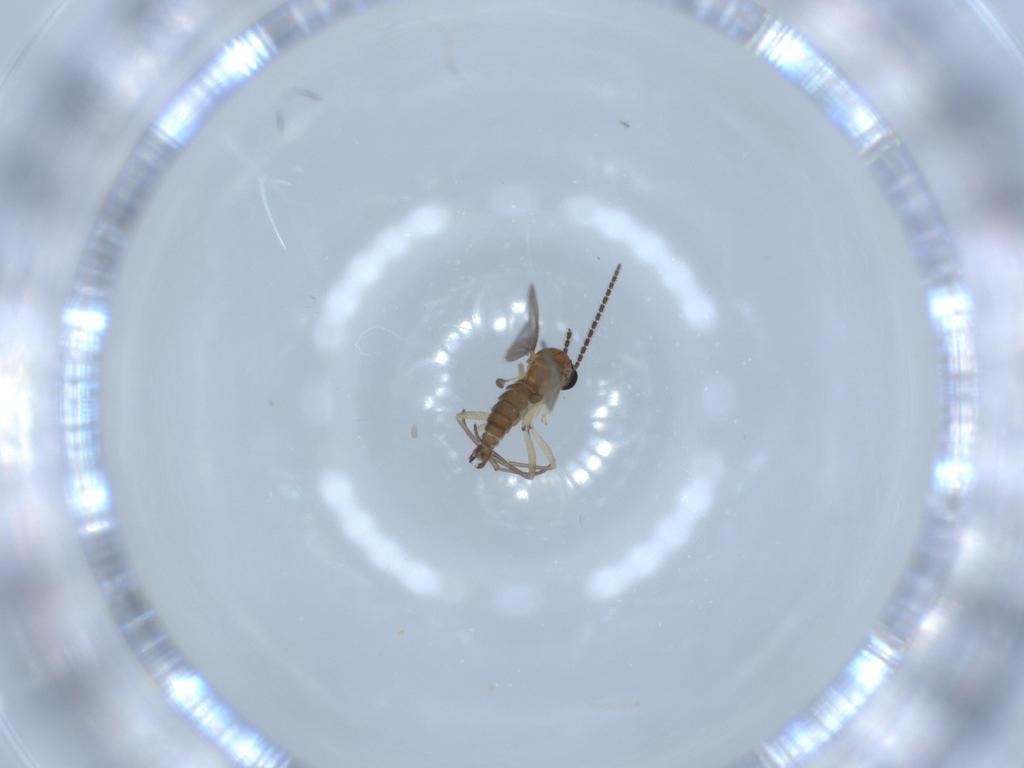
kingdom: Animalia
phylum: Arthropoda
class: Insecta
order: Diptera
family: Sciaridae
